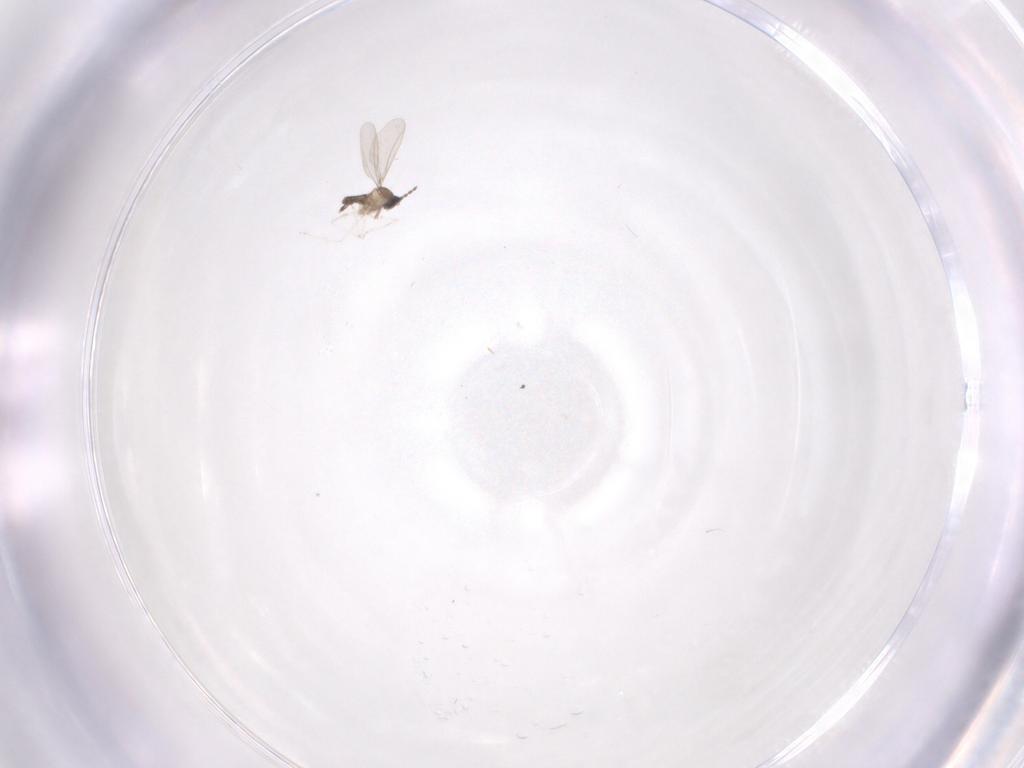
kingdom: Animalia
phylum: Arthropoda
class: Insecta
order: Diptera
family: Cecidomyiidae
